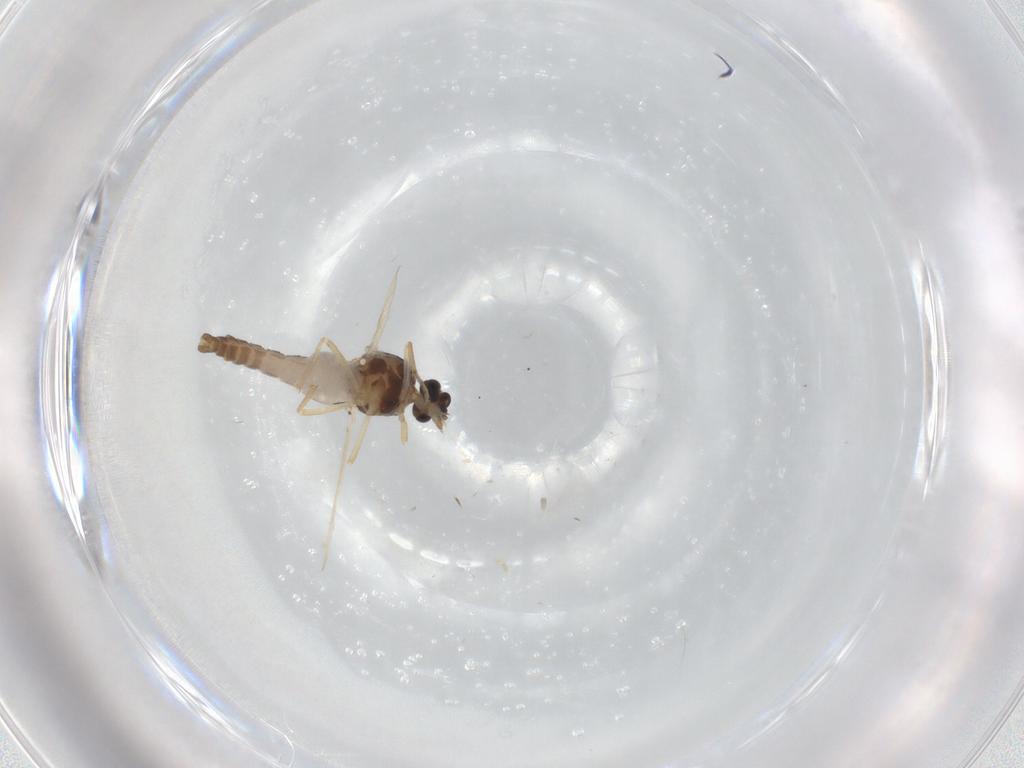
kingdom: Animalia
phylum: Arthropoda
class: Insecta
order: Diptera
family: Ceratopogonidae
